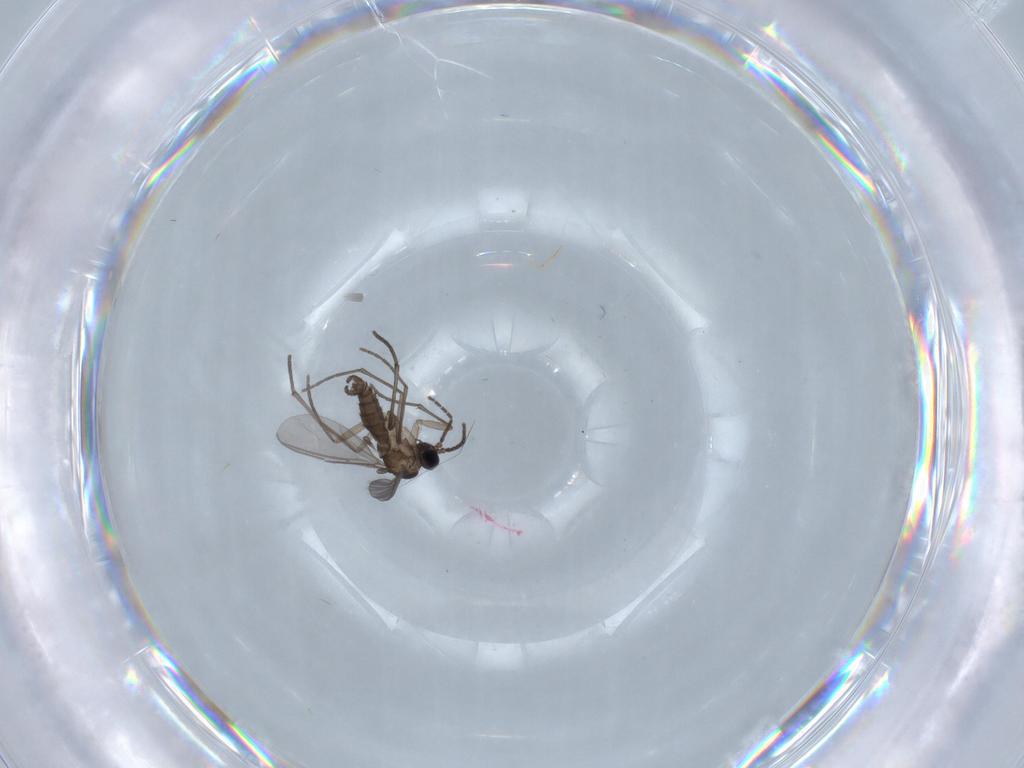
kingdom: Animalia
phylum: Arthropoda
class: Insecta
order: Diptera
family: Sciaridae
